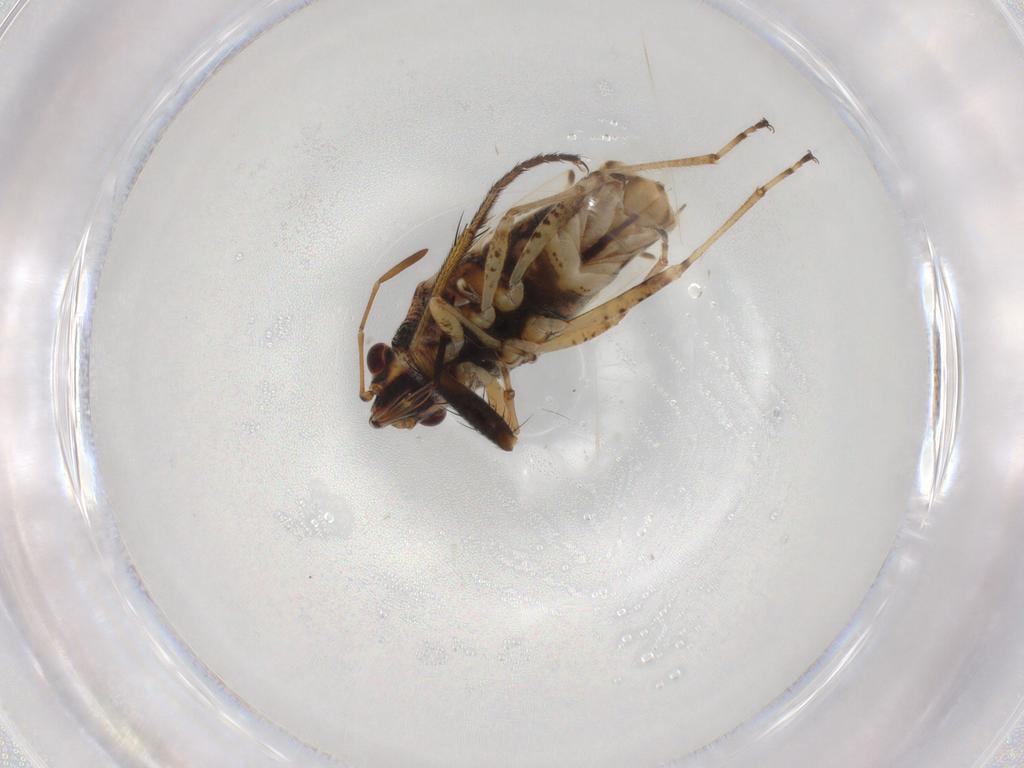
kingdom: Animalia
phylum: Arthropoda
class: Insecta
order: Hemiptera
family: Lygaeidae
